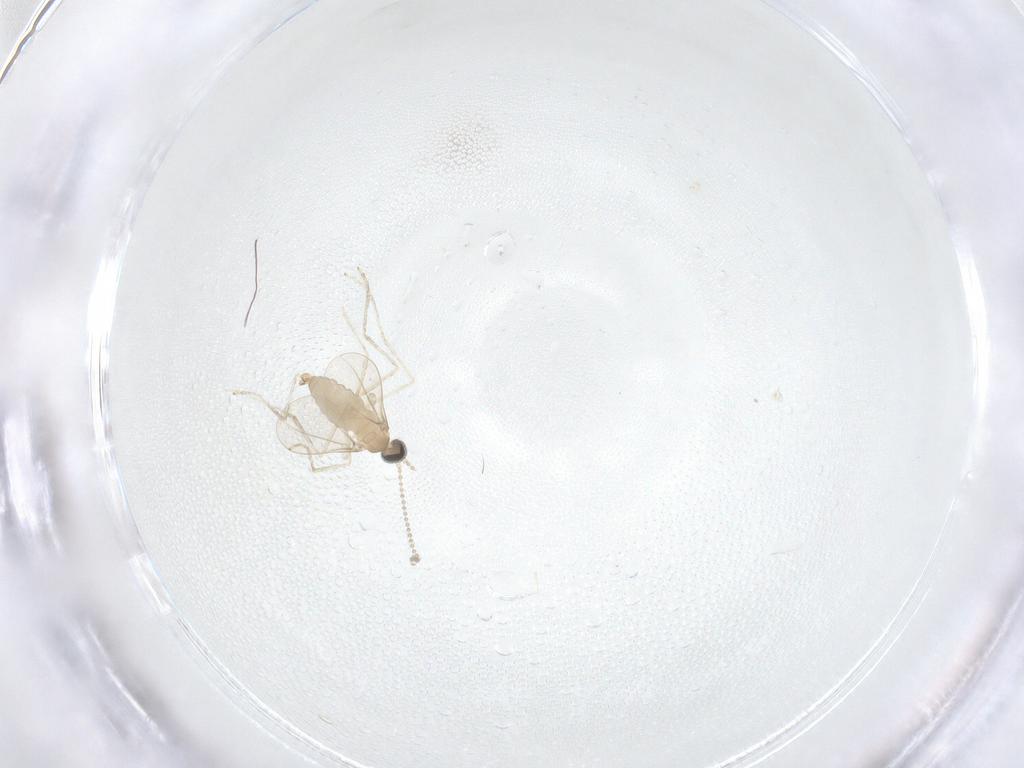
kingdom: Animalia
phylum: Arthropoda
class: Insecta
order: Diptera
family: Cecidomyiidae
